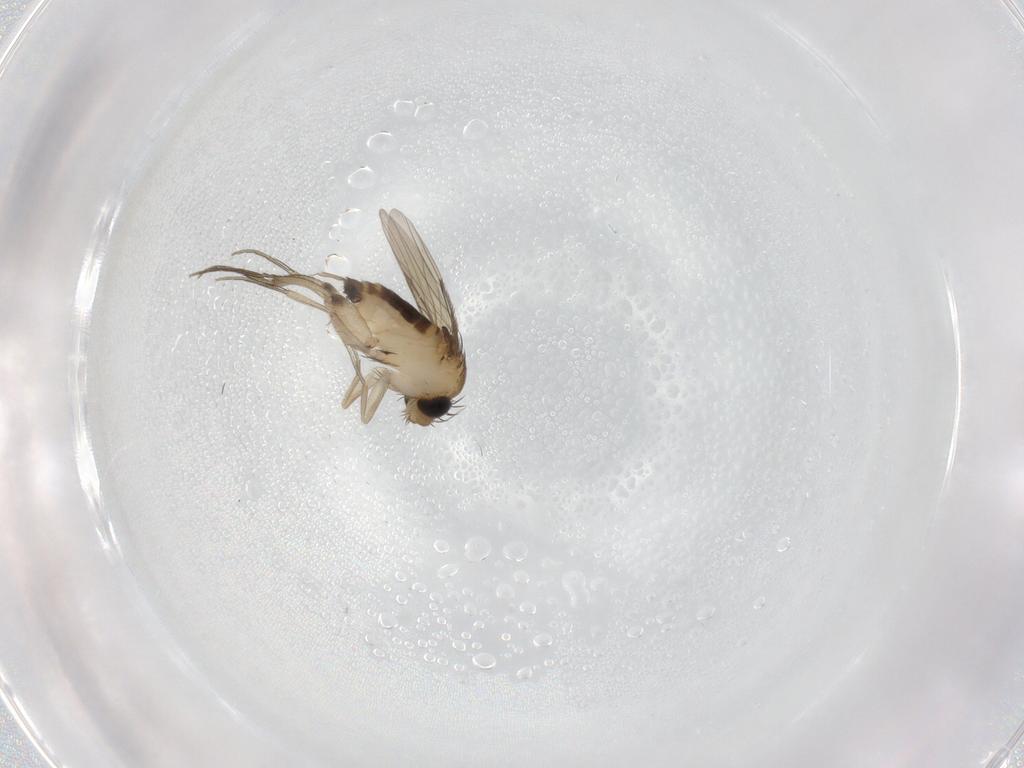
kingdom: Animalia
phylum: Arthropoda
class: Insecta
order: Diptera
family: Phoridae
